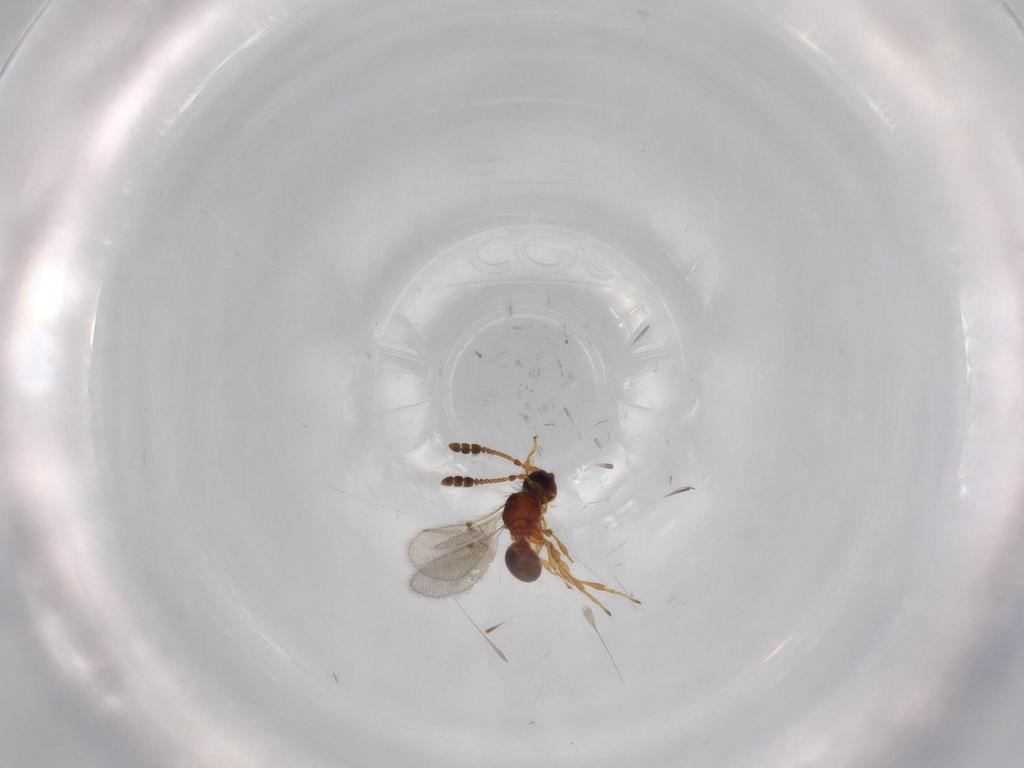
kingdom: Animalia
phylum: Arthropoda
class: Insecta
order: Hymenoptera
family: Diapriidae
